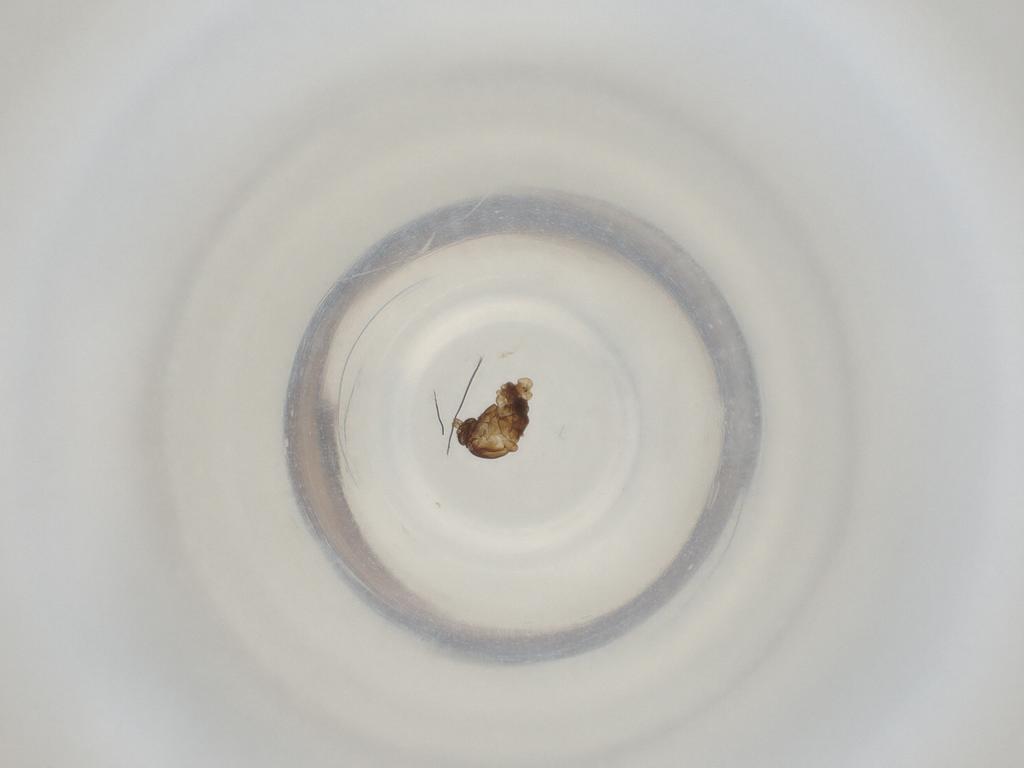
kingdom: Animalia
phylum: Arthropoda
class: Insecta
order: Diptera
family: Cecidomyiidae
